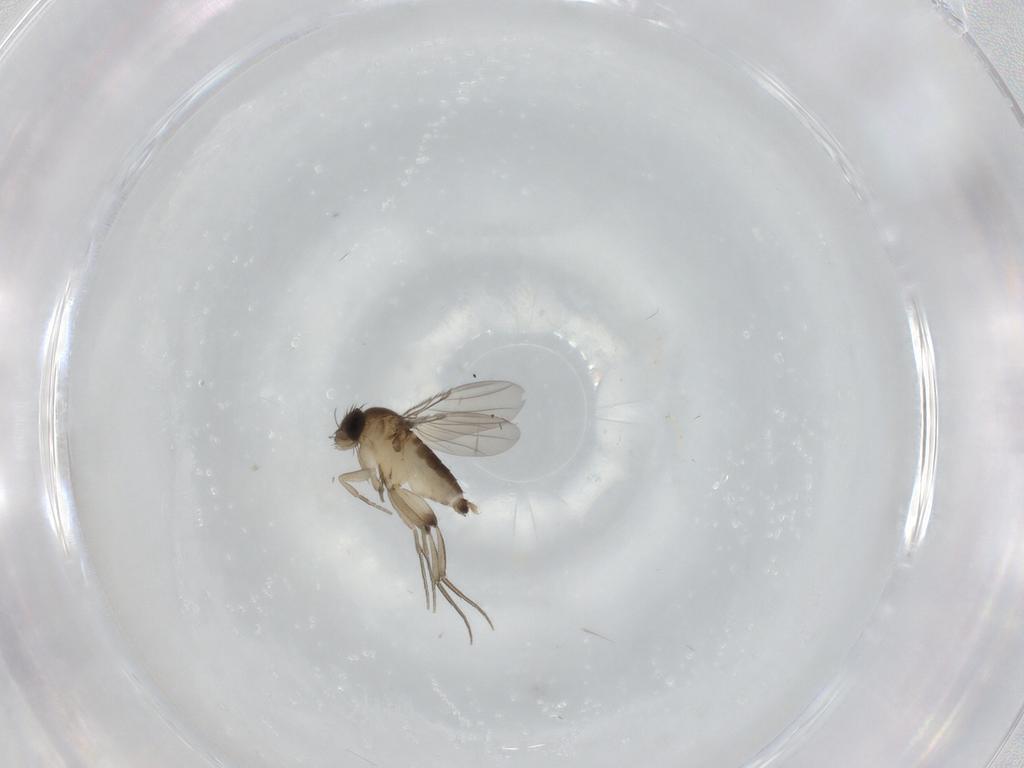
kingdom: Animalia
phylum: Arthropoda
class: Insecta
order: Diptera
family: Phoridae
